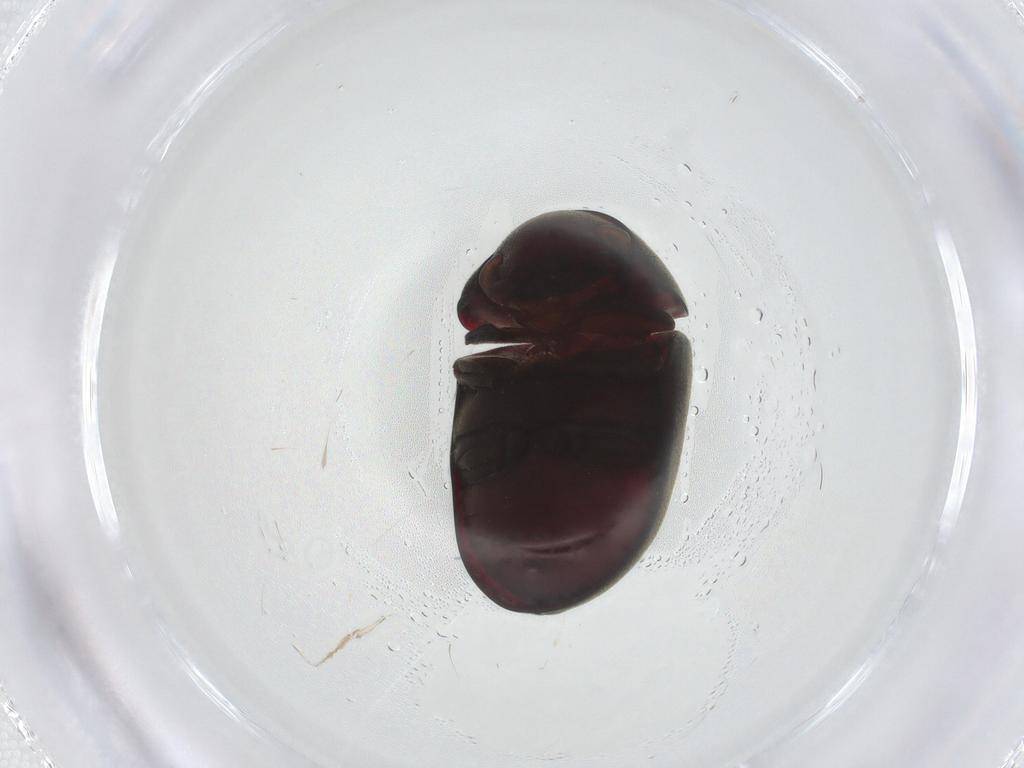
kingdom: Animalia
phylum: Arthropoda
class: Insecta
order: Coleoptera
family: Ptinidae
